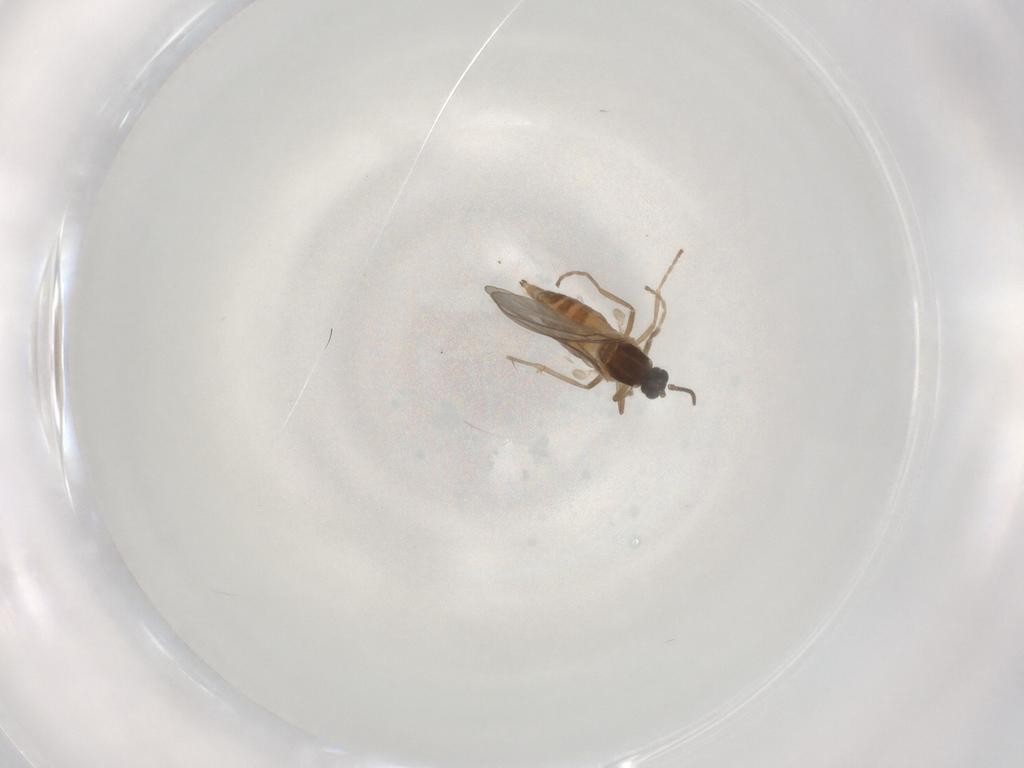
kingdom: Animalia
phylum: Arthropoda
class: Insecta
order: Diptera
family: Cecidomyiidae
